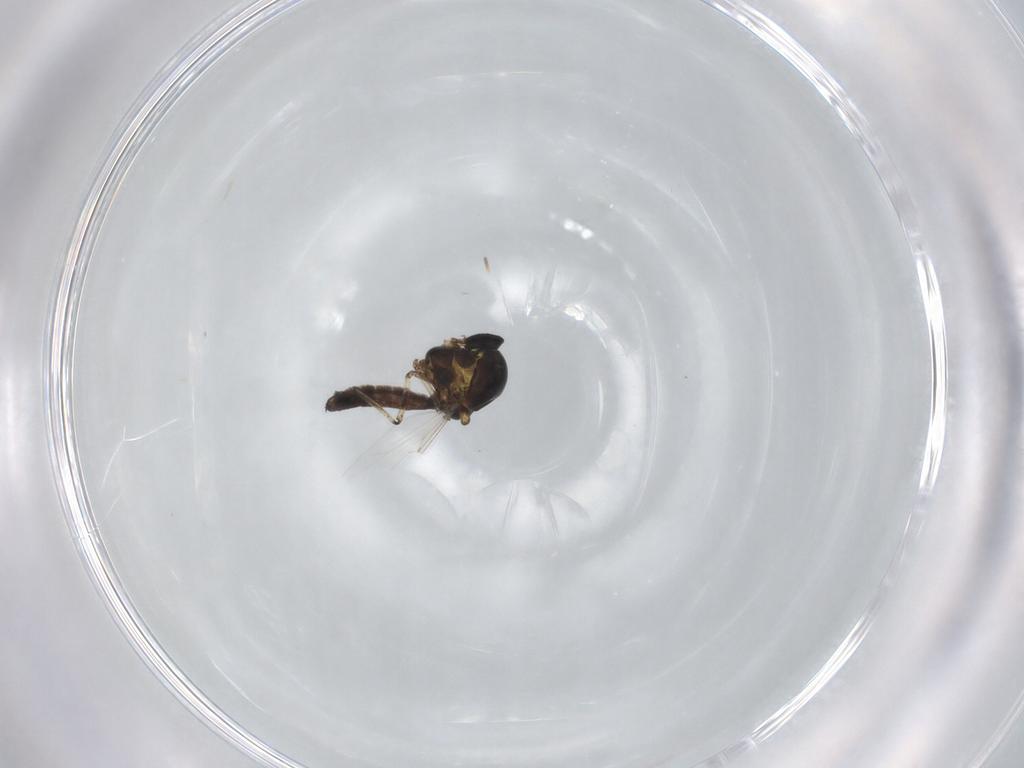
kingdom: Animalia
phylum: Arthropoda
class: Insecta
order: Diptera
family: Ceratopogonidae
